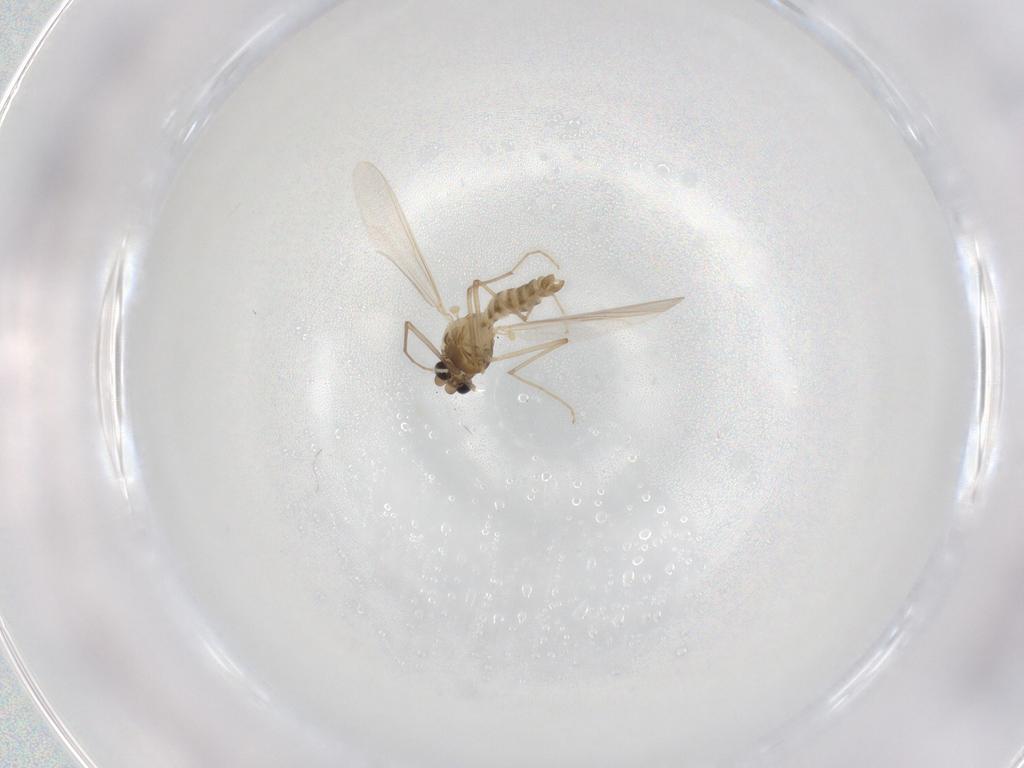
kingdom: Animalia
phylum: Arthropoda
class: Insecta
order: Diptera
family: Chironomidae
